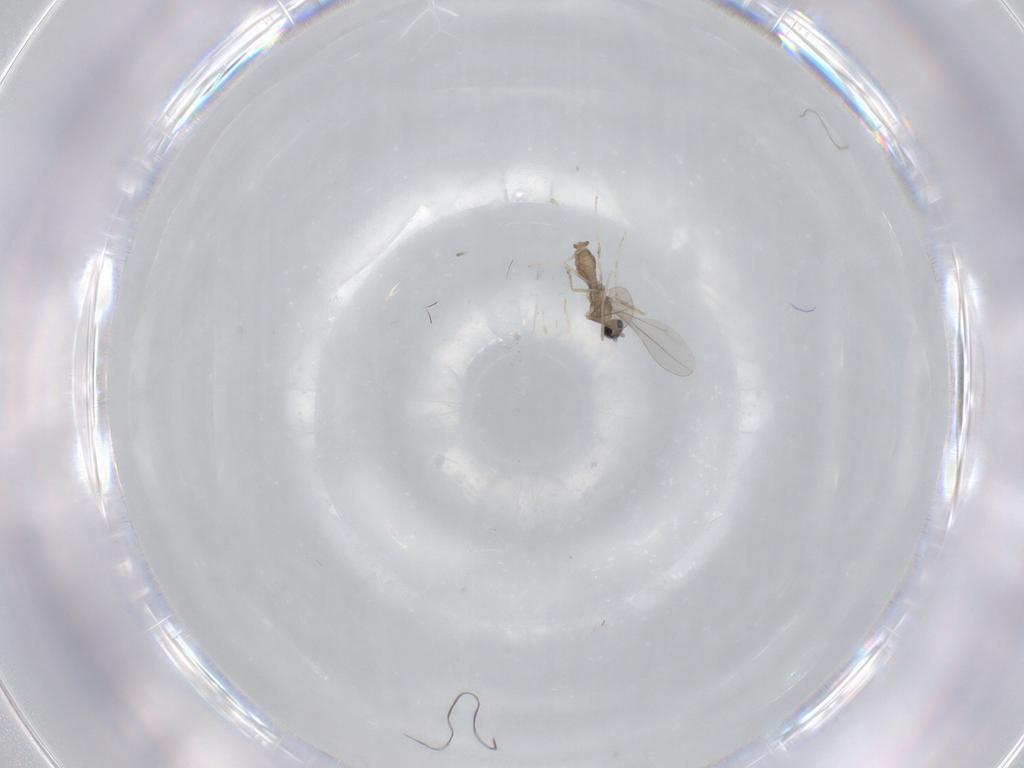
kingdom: Animalia
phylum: Arthropoda
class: Insecta
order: Diptera
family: Cecidomyiidae
